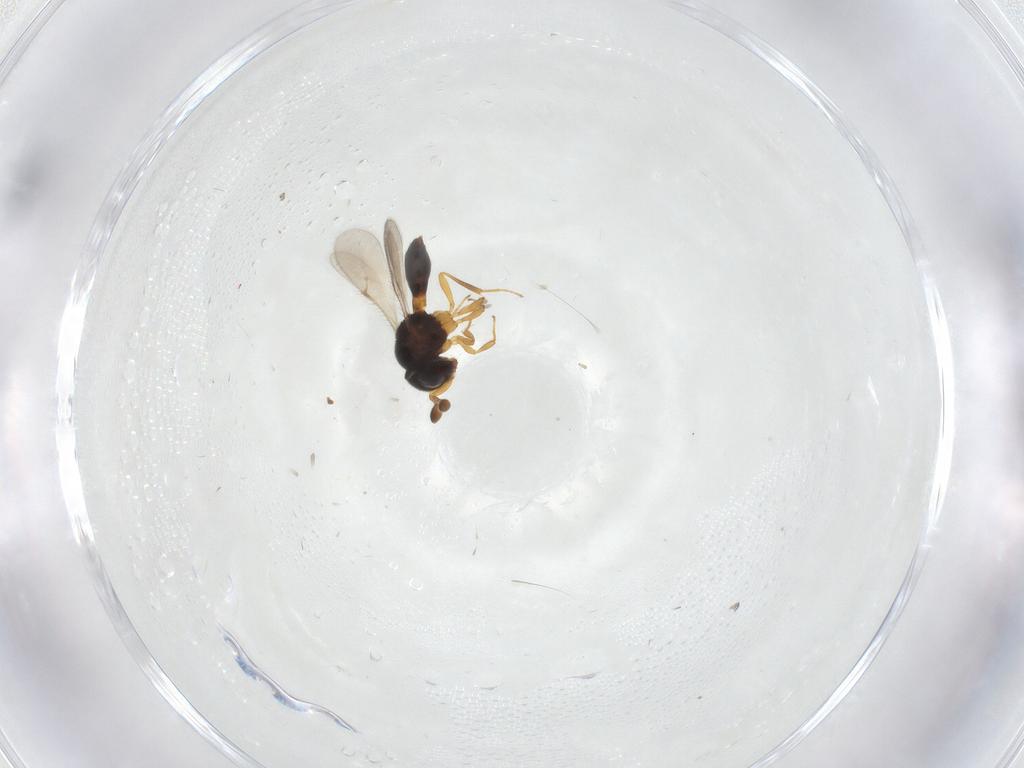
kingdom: Animalia
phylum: Arthropoda
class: Insecta
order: Hymenoptera
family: Scelionidae
